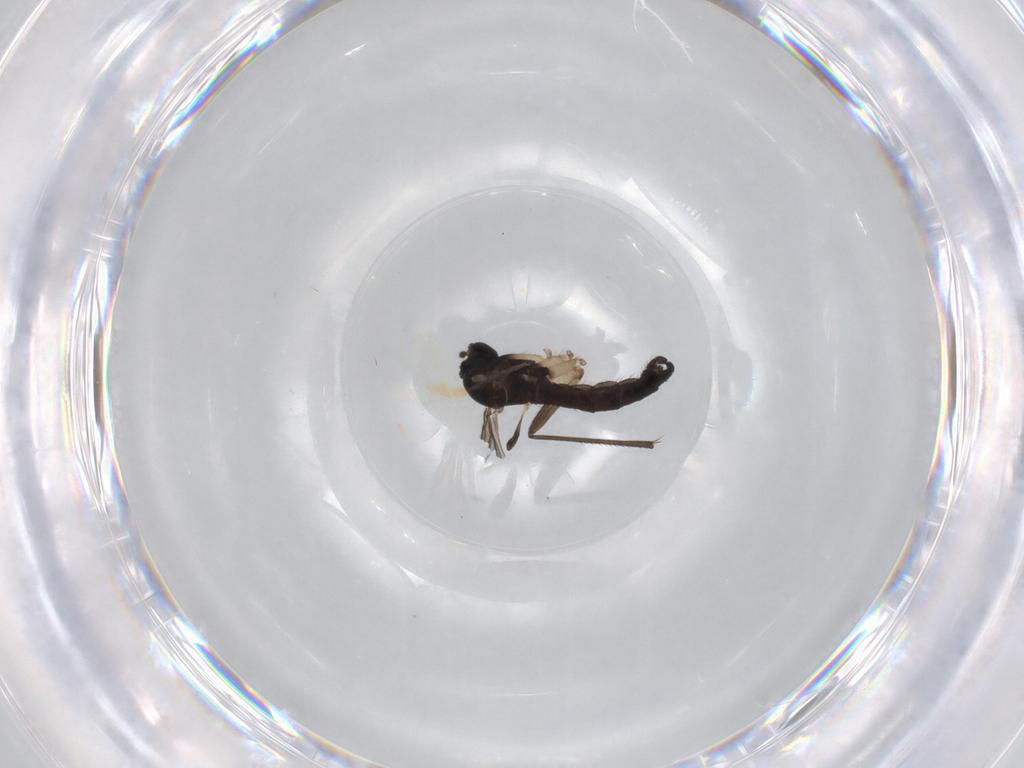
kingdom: Animalia
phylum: Arthropoda
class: Insecta
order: Diptera
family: Sciaridae
